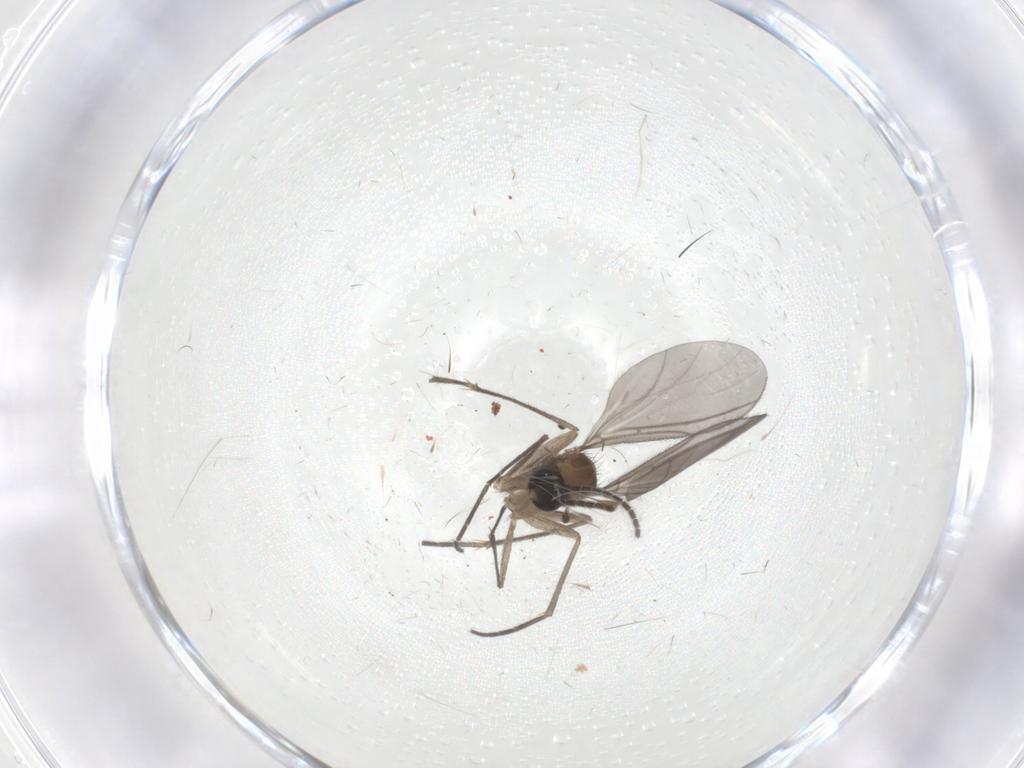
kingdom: Animalia
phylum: Arthropoda
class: Insecta
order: Diptera
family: Sciaridae
